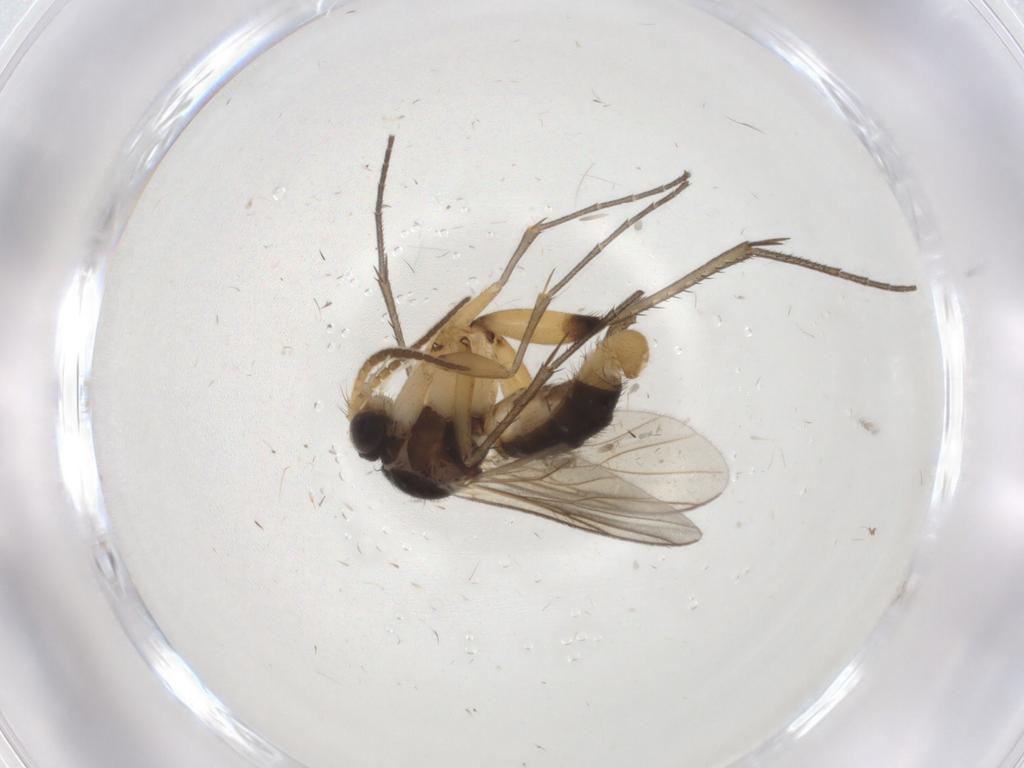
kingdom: Animalia
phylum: Arthropoda
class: Insecta
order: Diptera
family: Mycetophilidae
